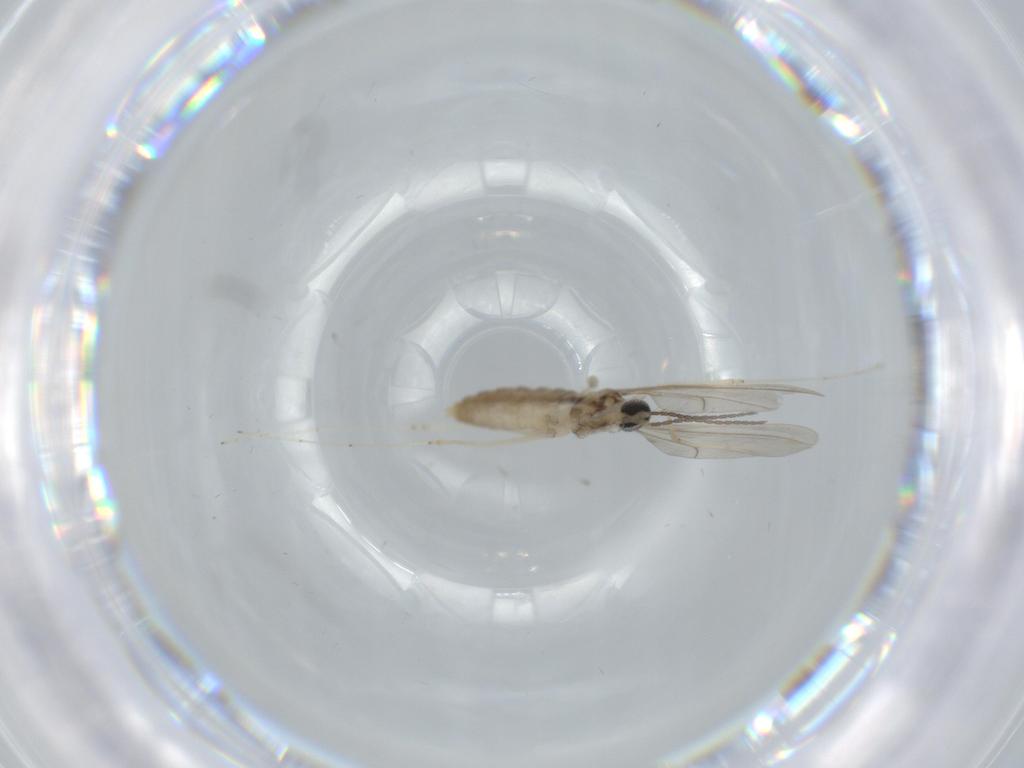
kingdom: Animalia
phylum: Arthropoda
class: Insecta
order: Diptera
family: Cecidomyiidae
